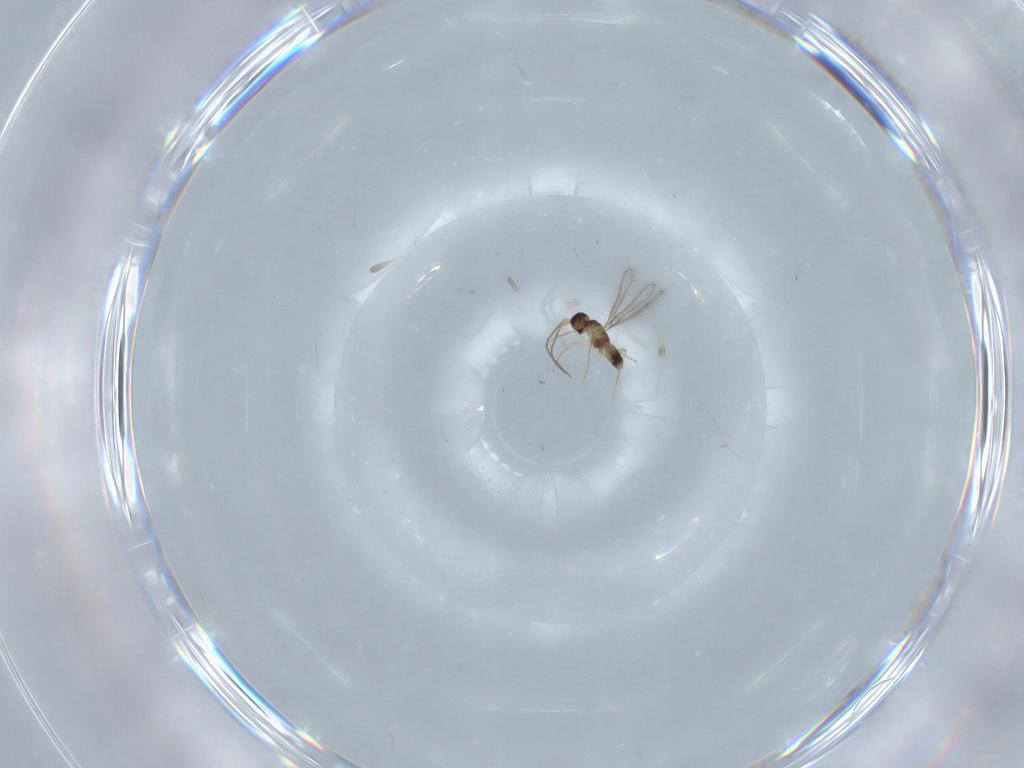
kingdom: Animalia
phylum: Arthropoda
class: Insecta
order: Hymenoptera
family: Mymaridae
